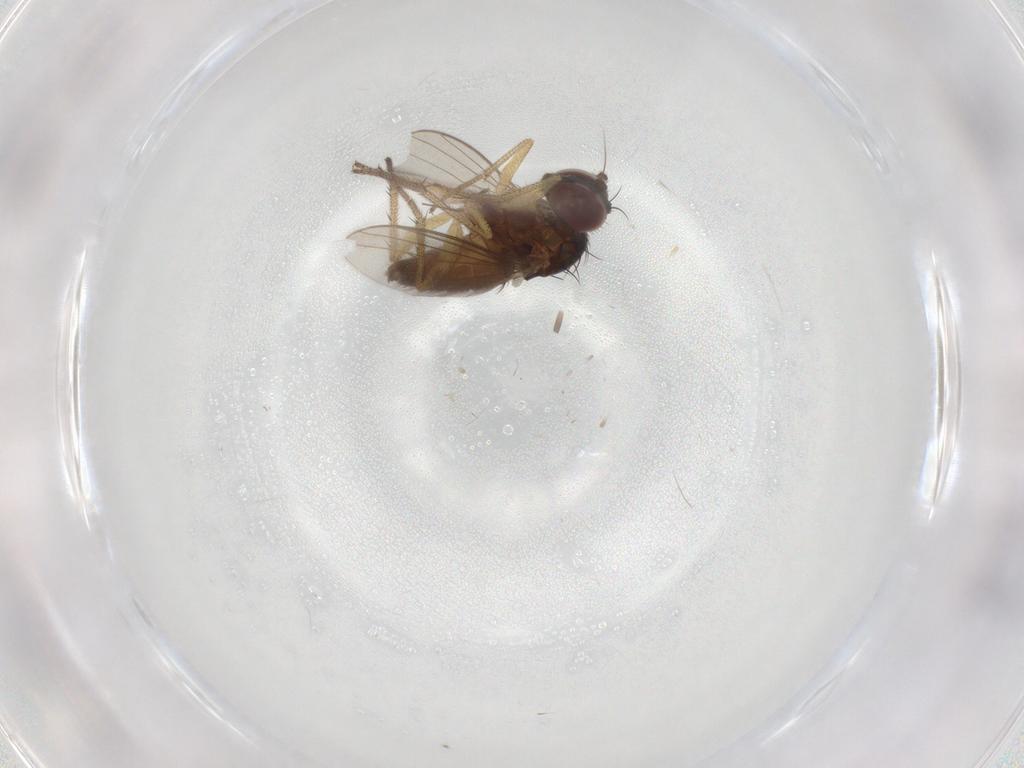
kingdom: Animalia
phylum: Arthropoda
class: Insecta
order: Diptera
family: Dolichopodidae
